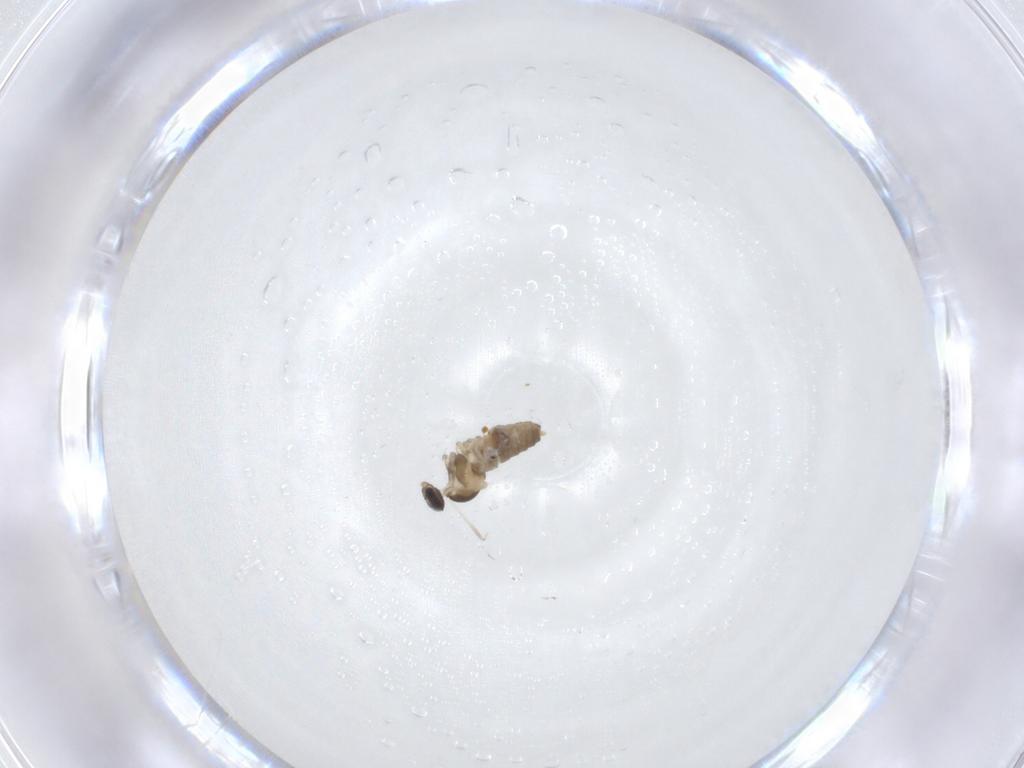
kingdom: Animalia
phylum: Arthropoda
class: Insecta
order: Diptera
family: Cecidomyiidae
